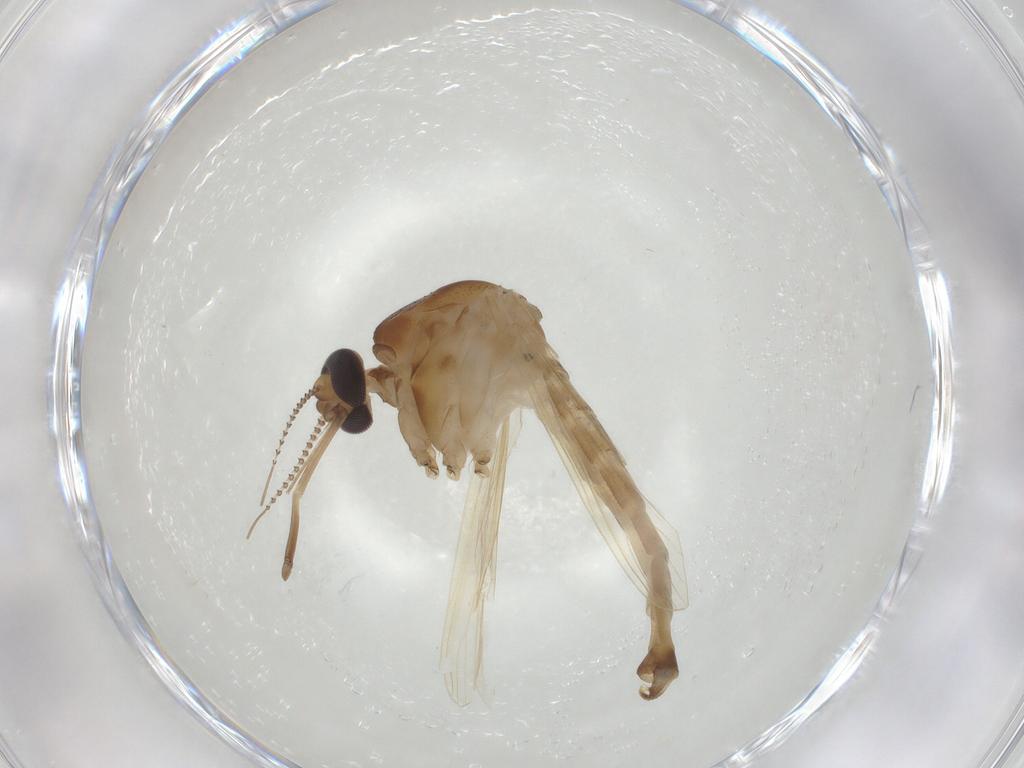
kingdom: Animalia
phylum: Arthropoda
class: Insecta
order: Diptera
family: Culicidae
